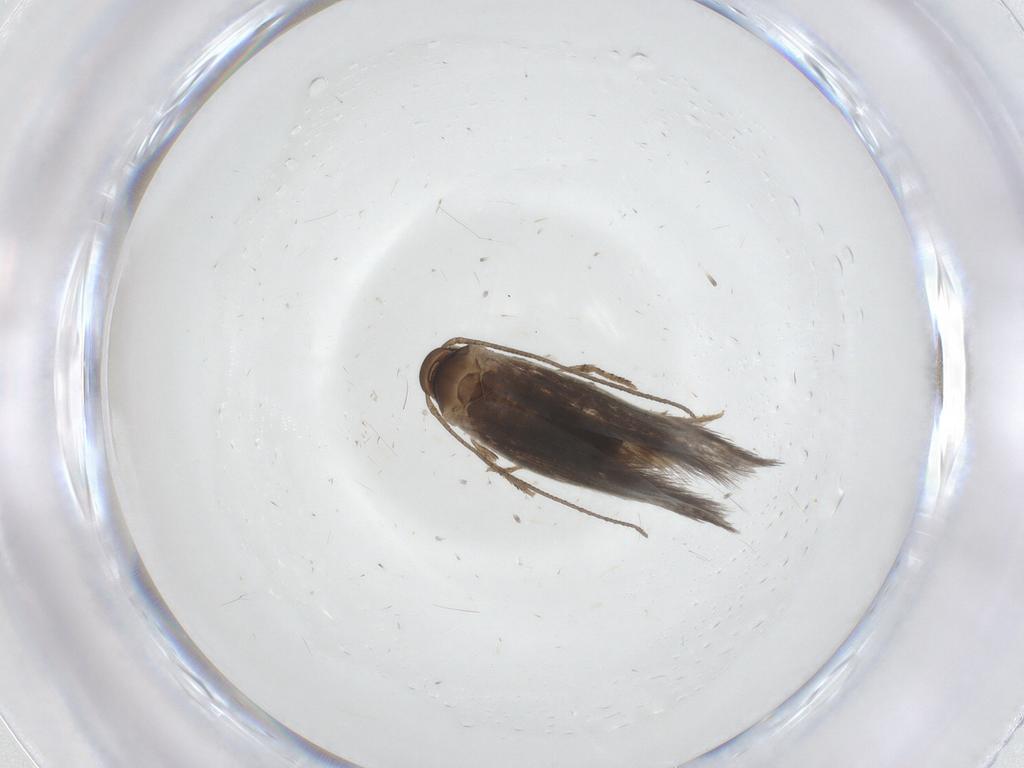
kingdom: Animalia
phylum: Arthropoda
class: Insecta
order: Lepidoptera
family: Elachistidae
